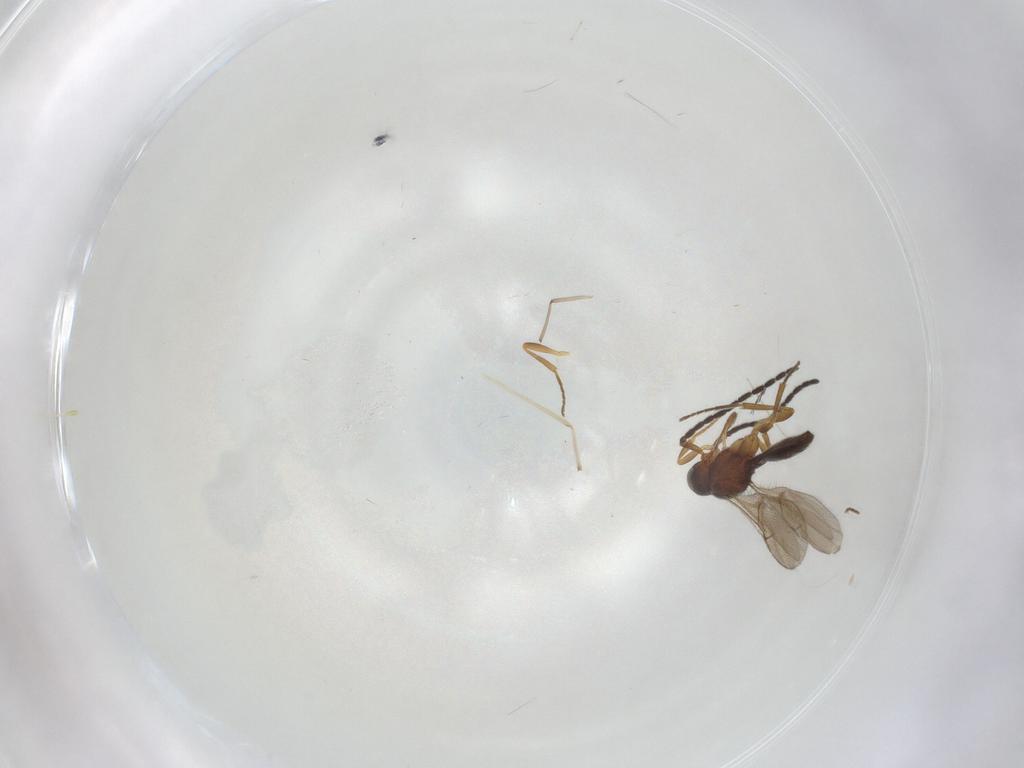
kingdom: Animalia
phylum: Arthropoda
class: Insecta
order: Hymenoptera
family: Scelionidae
